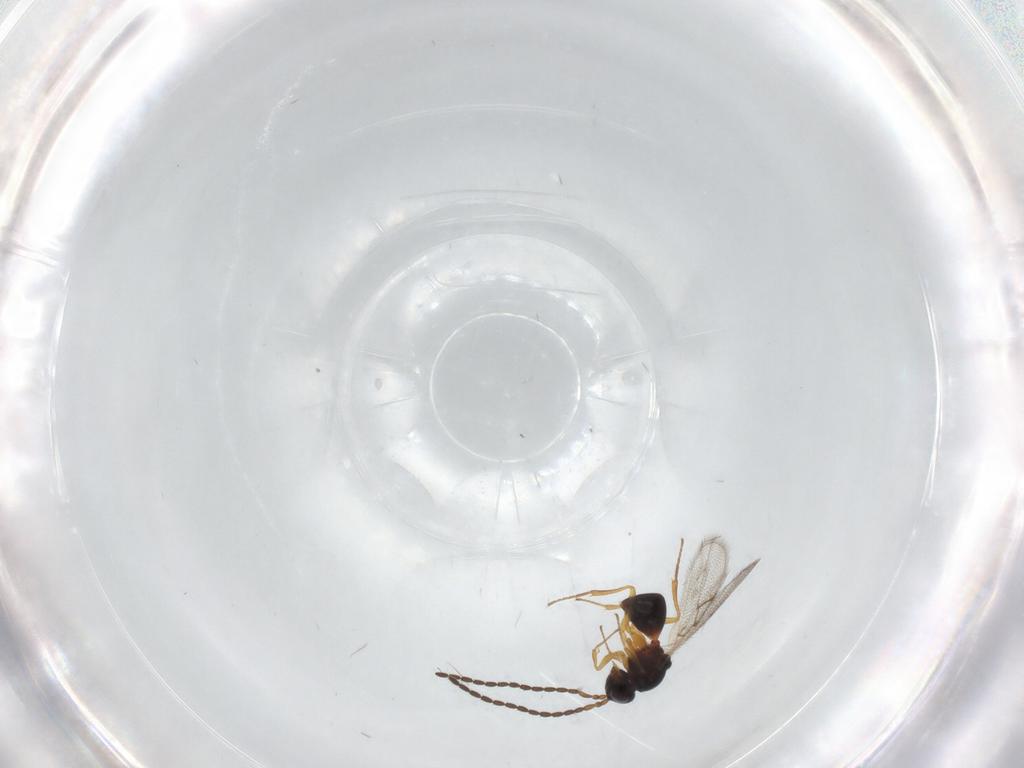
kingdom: Animalia
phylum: Arthropoda
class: Insecta
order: Hymenoptera
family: Figitidae
